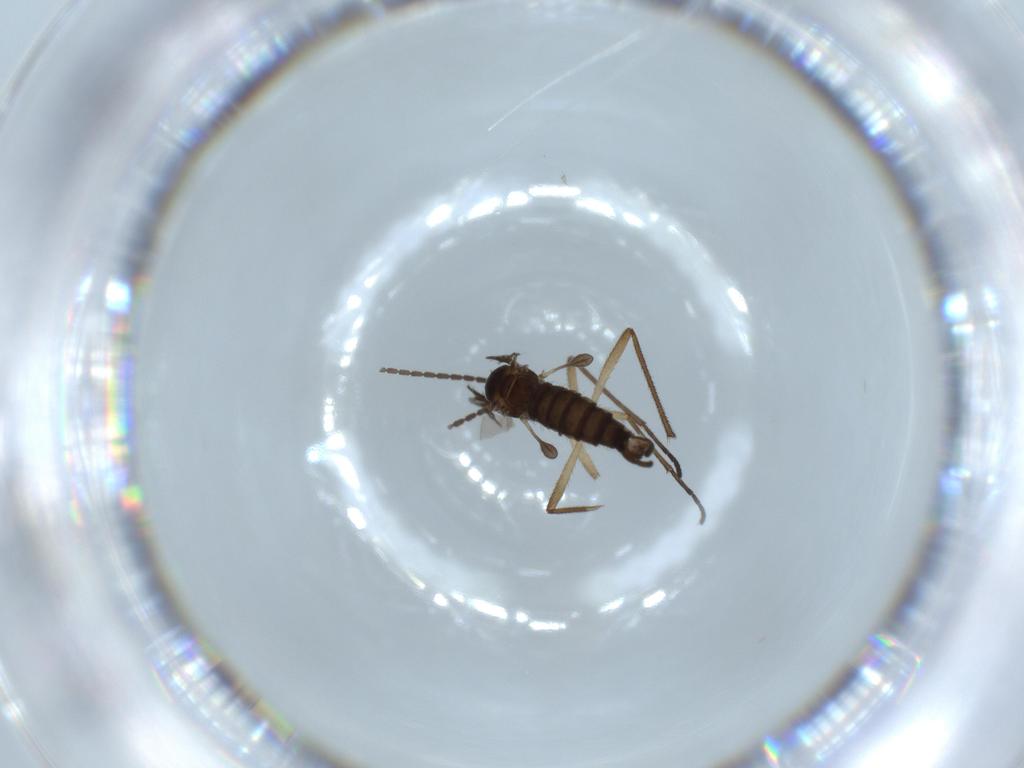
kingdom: Animalia
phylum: Arthropoda
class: Insecta
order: Diptera
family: Sciaridae
